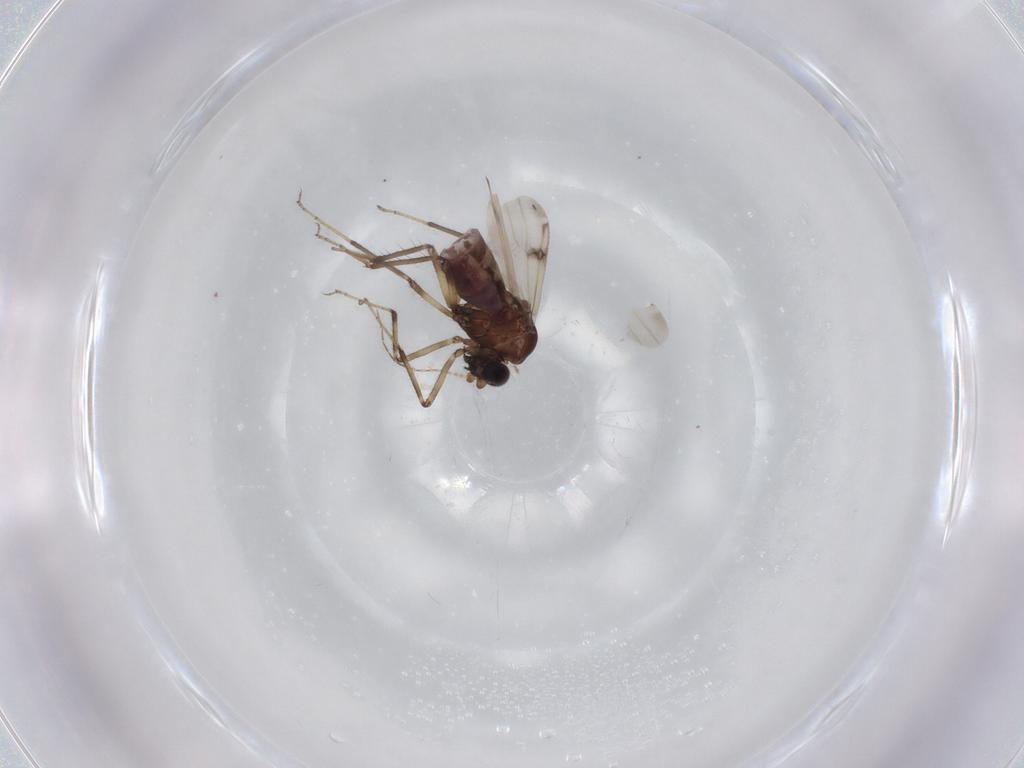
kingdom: Animalia
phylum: Arthropoda
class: Insecta
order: Diptera
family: Ceratopogonidae
